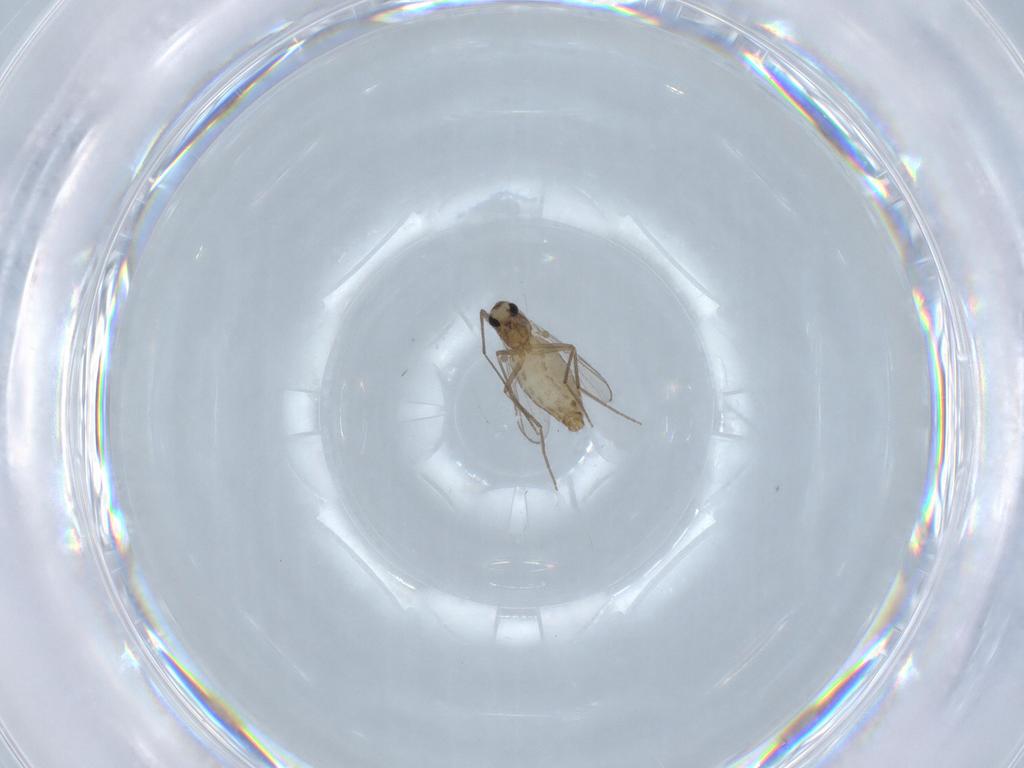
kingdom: Animalia
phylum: Arthropoda
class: Insecta
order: Diptera
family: Chironomidae
